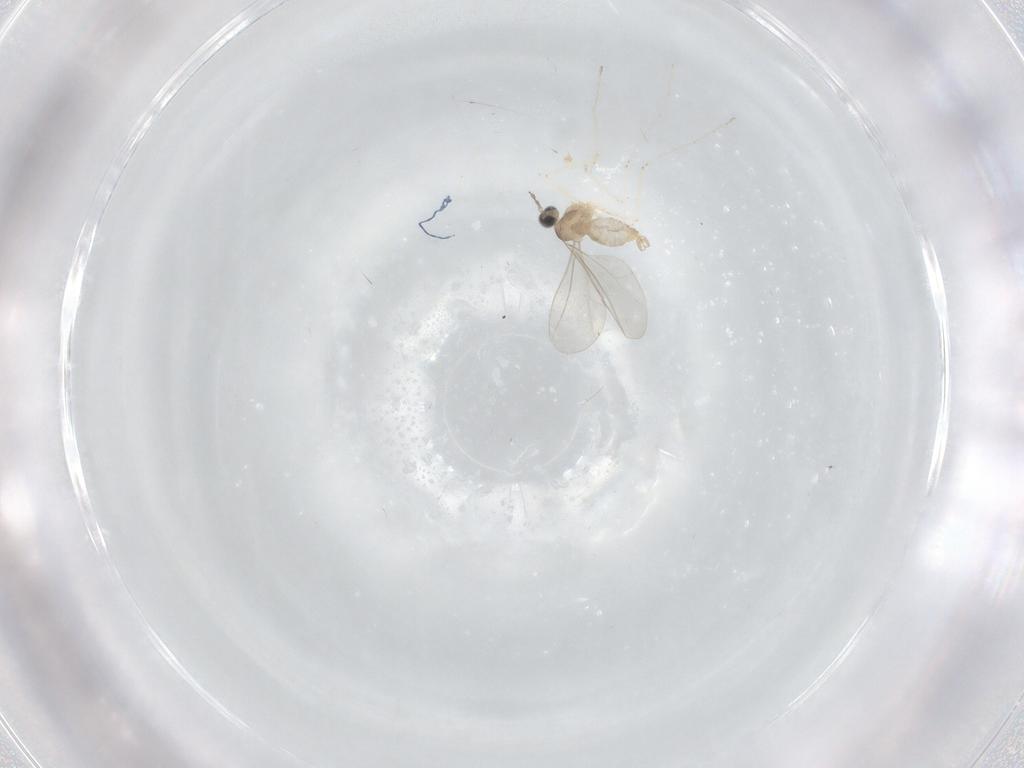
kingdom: Animalia
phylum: Arthropoda
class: Insecta
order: Diptera
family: Cecidomyiidae
